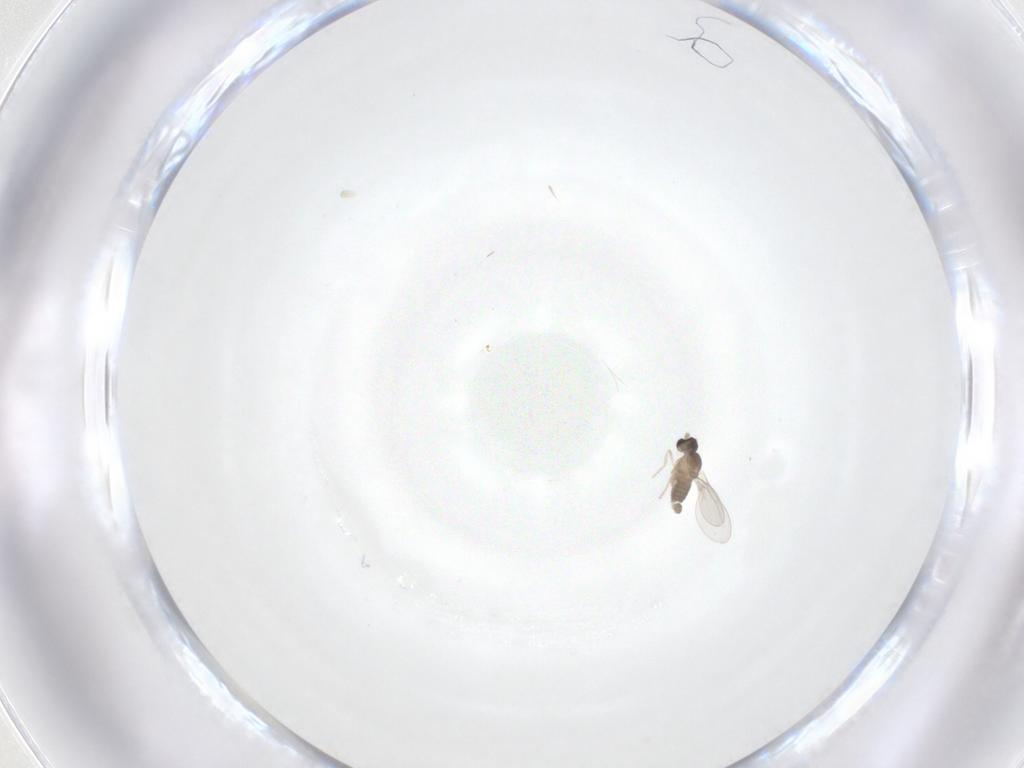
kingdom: Animalia
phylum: Arthropoda
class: Insecta
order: Diptera
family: Cecidomyiidae
